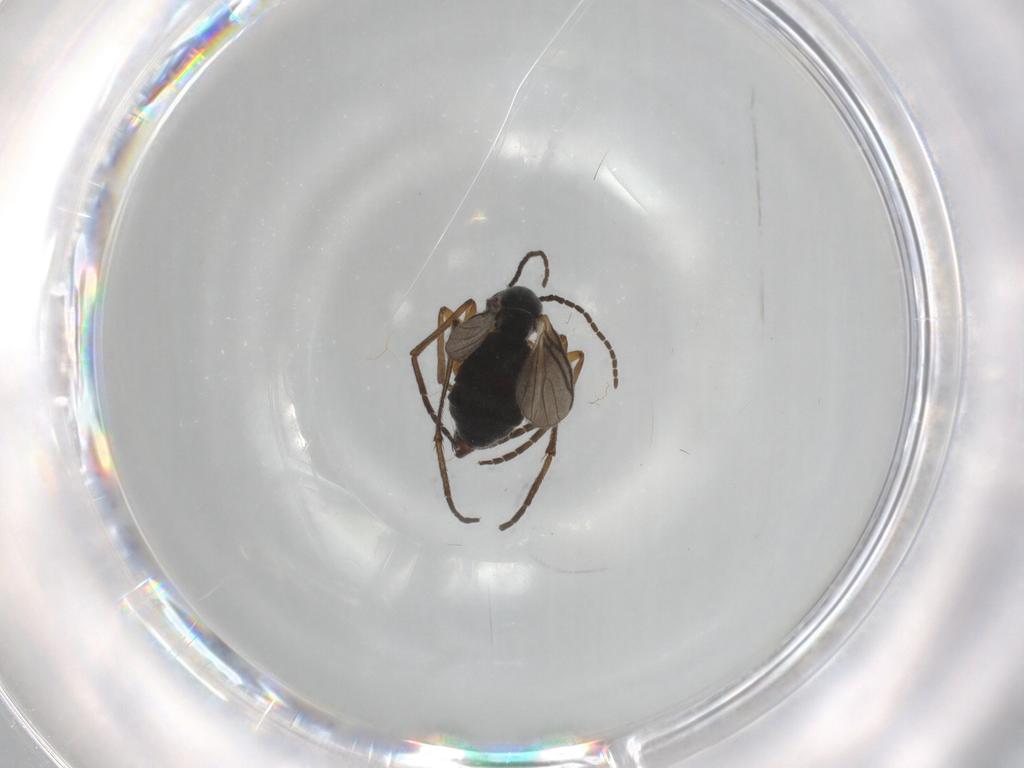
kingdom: Animalia
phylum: Arthropoda
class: Insecta
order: Diptera
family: Sciaridae
